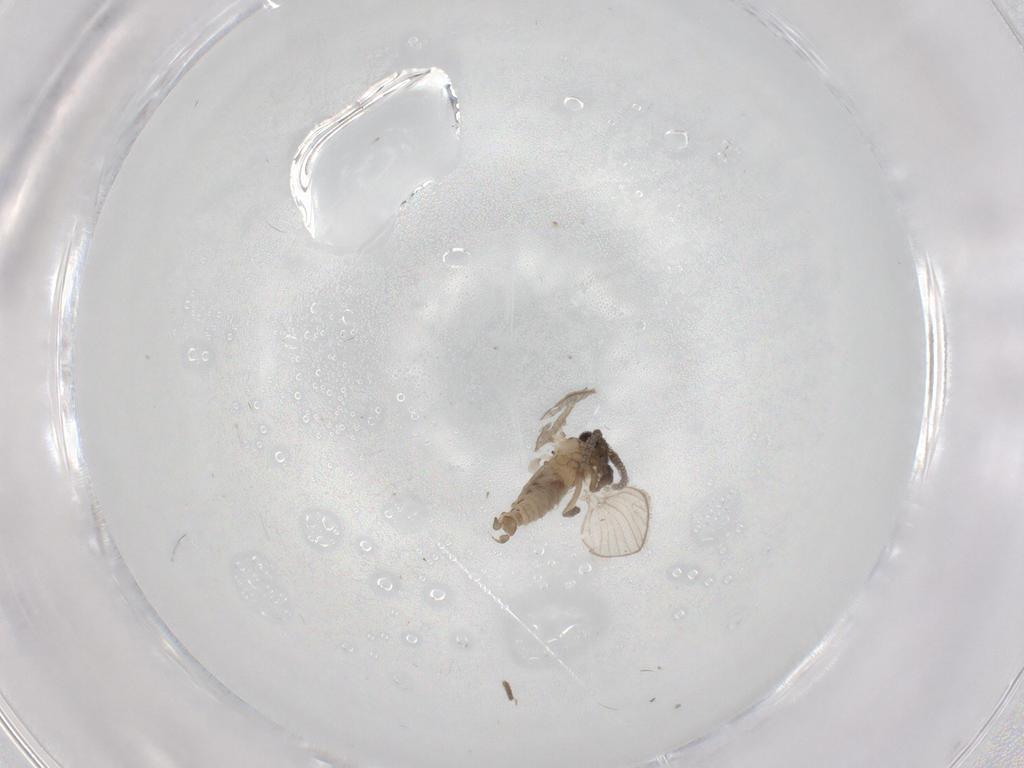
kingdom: Animalia
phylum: Arthropoda
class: Insecta
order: Diptera
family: Psychodidae
